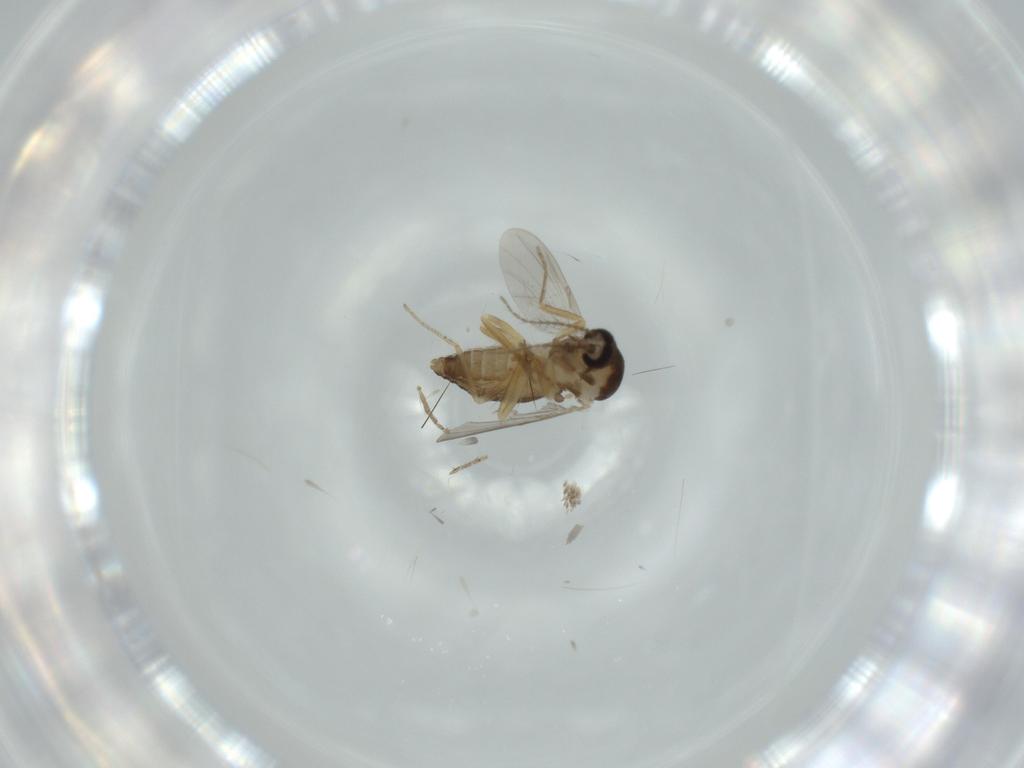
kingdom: Animalia
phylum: Arthropoda
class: Insecta
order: Diptera
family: Ceratopogonidae
